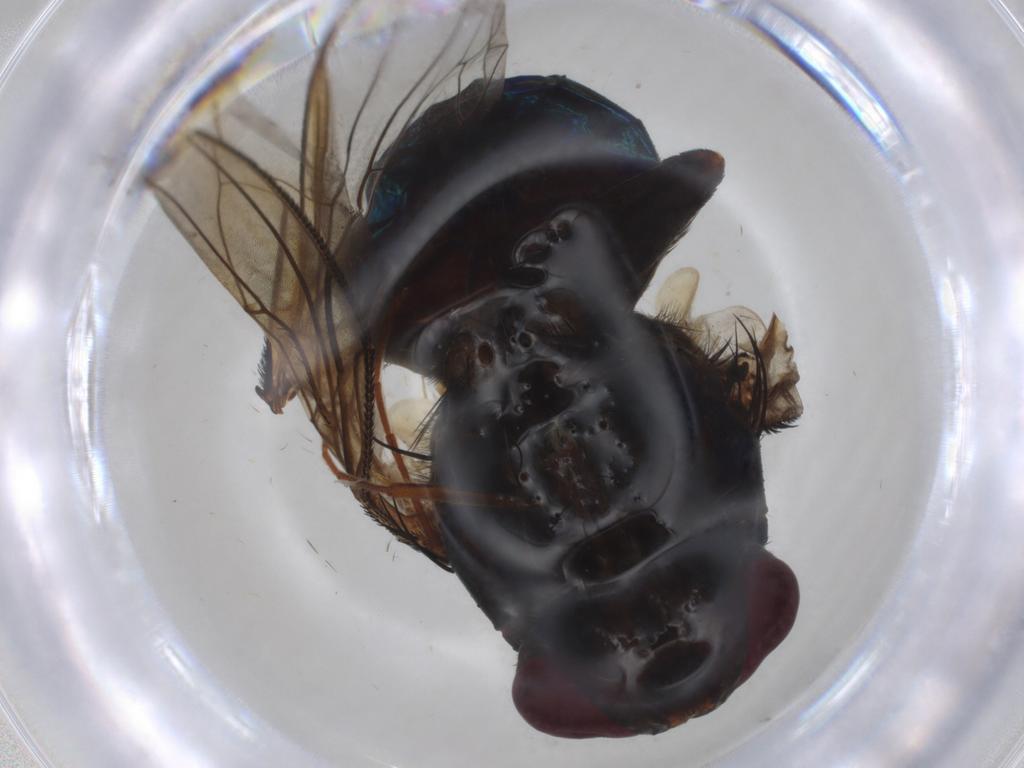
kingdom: Animalia
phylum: Arthropoda
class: Insecta
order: Diptera
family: Calliphoridae
